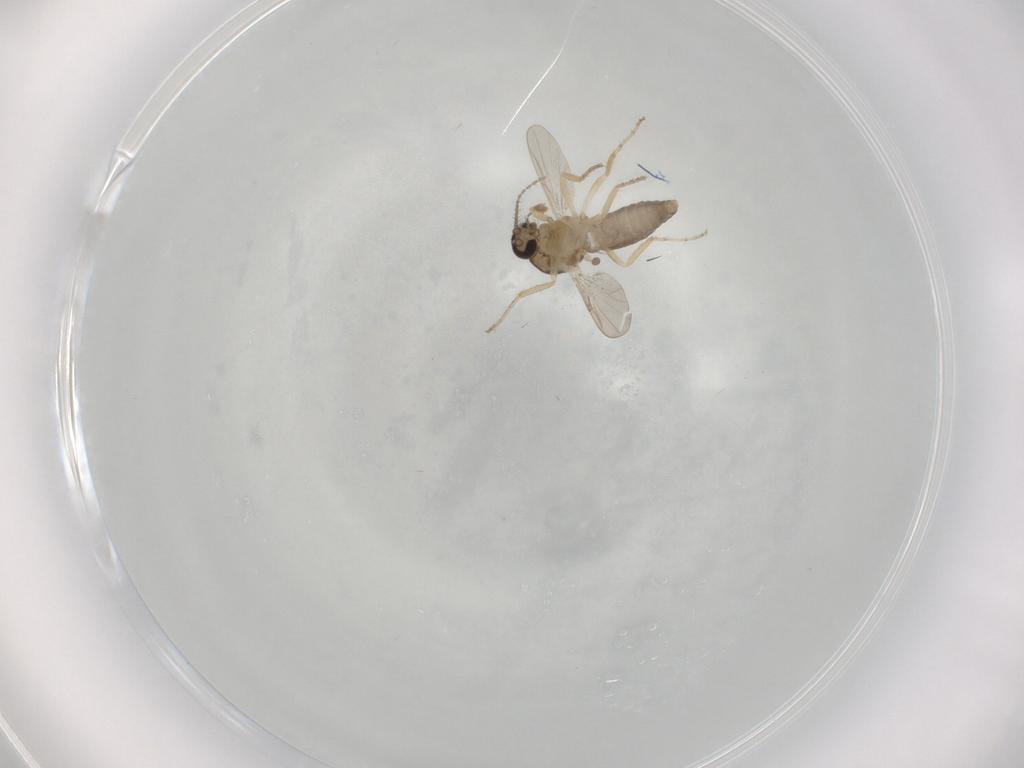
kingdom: Animalia
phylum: Arthropoda
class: Insecta
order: Diptera
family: Ceratopogonidae
